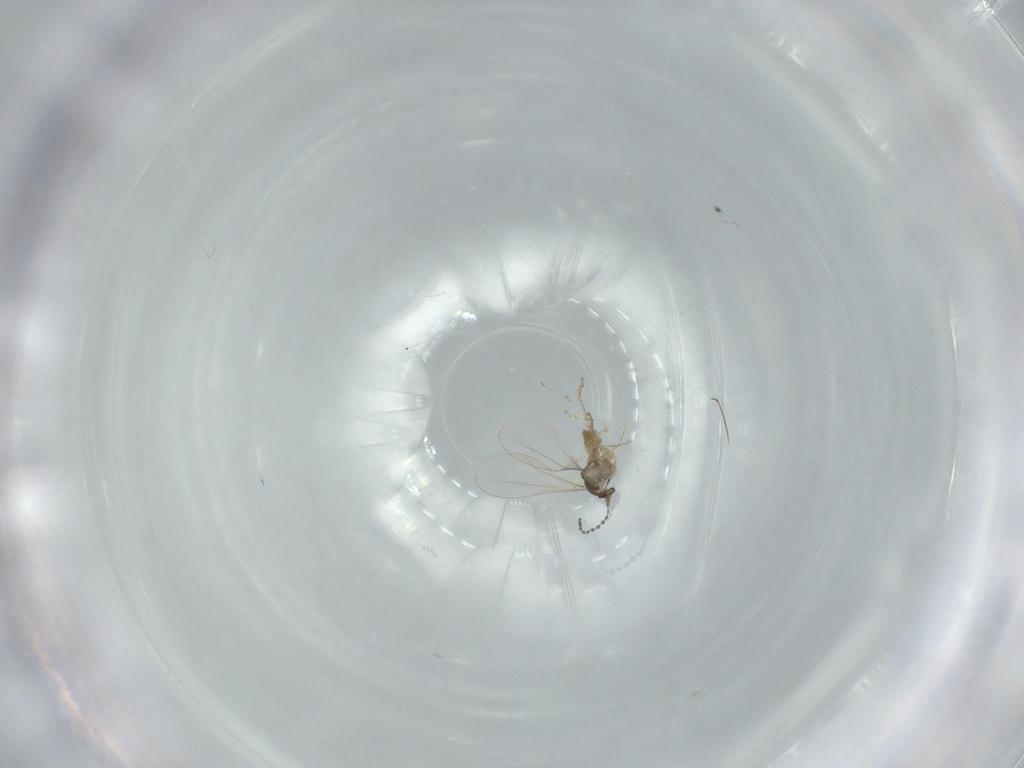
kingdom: Animalia
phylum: Arthropoda
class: Insecta
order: Diptera
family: Cecidomyiidae
